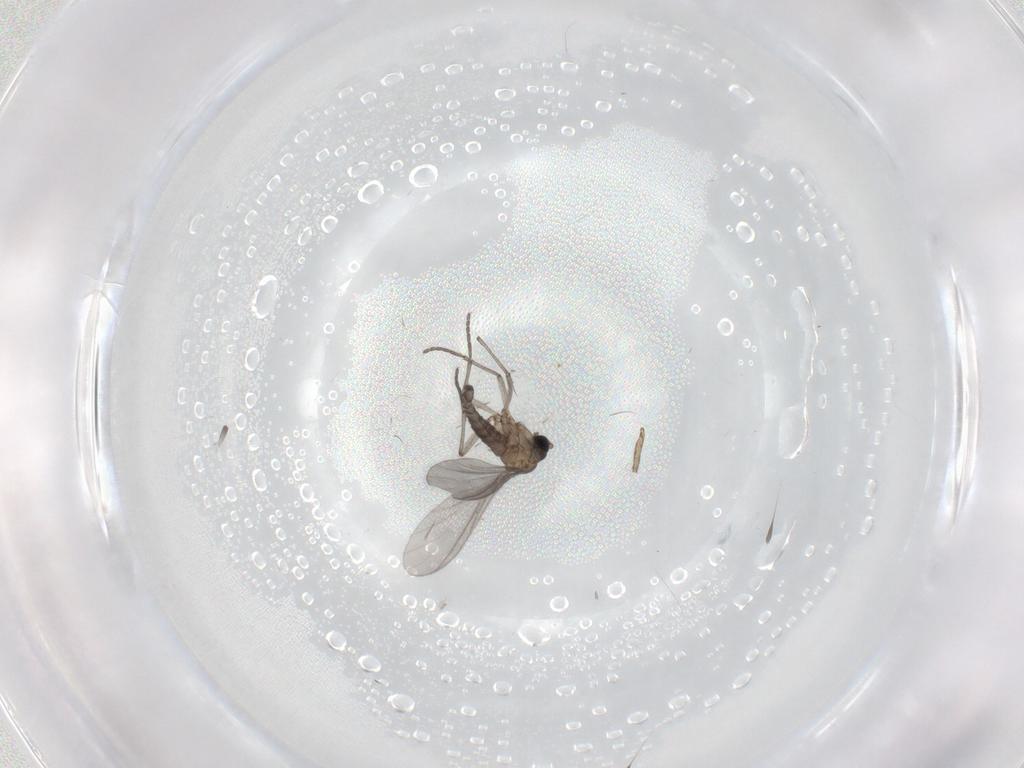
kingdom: Animalia
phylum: Arthropoda
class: Insecta
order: Diptera
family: Sciaridae
